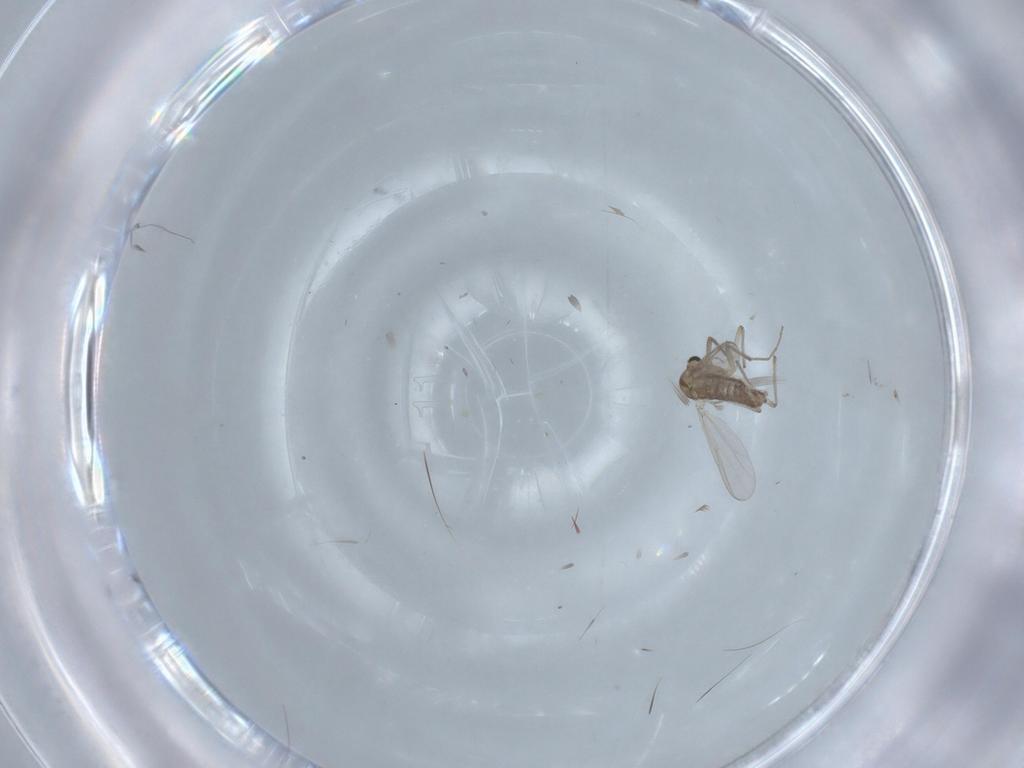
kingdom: Animalia
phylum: Arthropoda
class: Insecta
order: Diptera
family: Chironomidae
